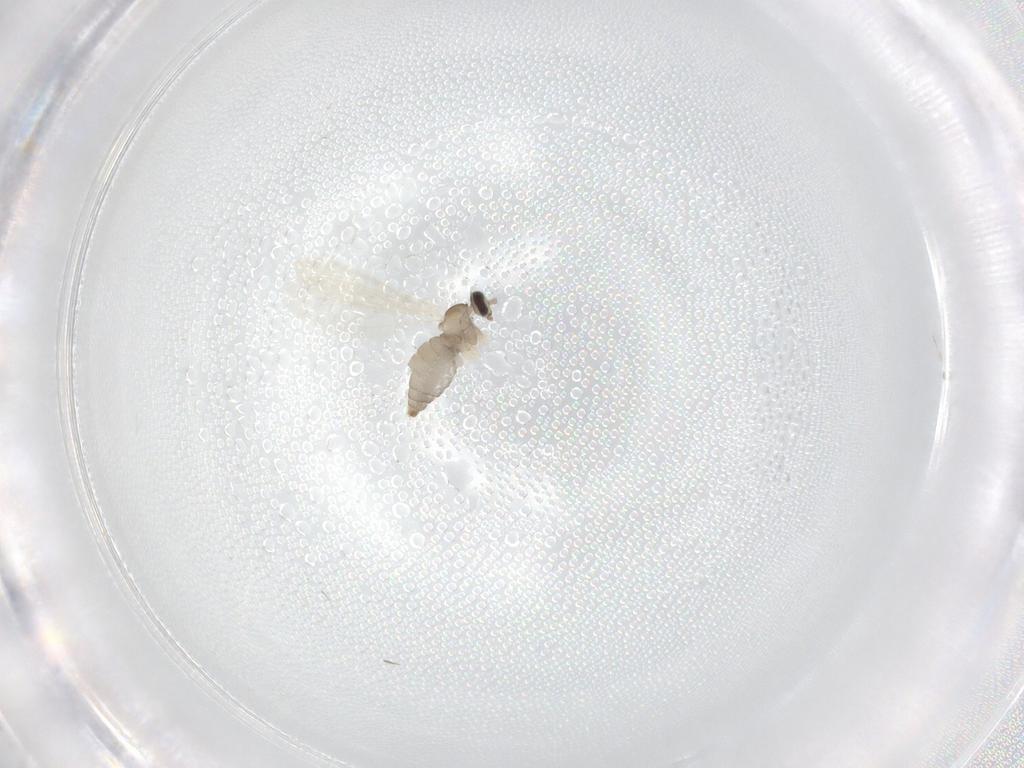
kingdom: Animalia
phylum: Arthropoda
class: Insecta
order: Diptera
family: Cecidomyiidae
